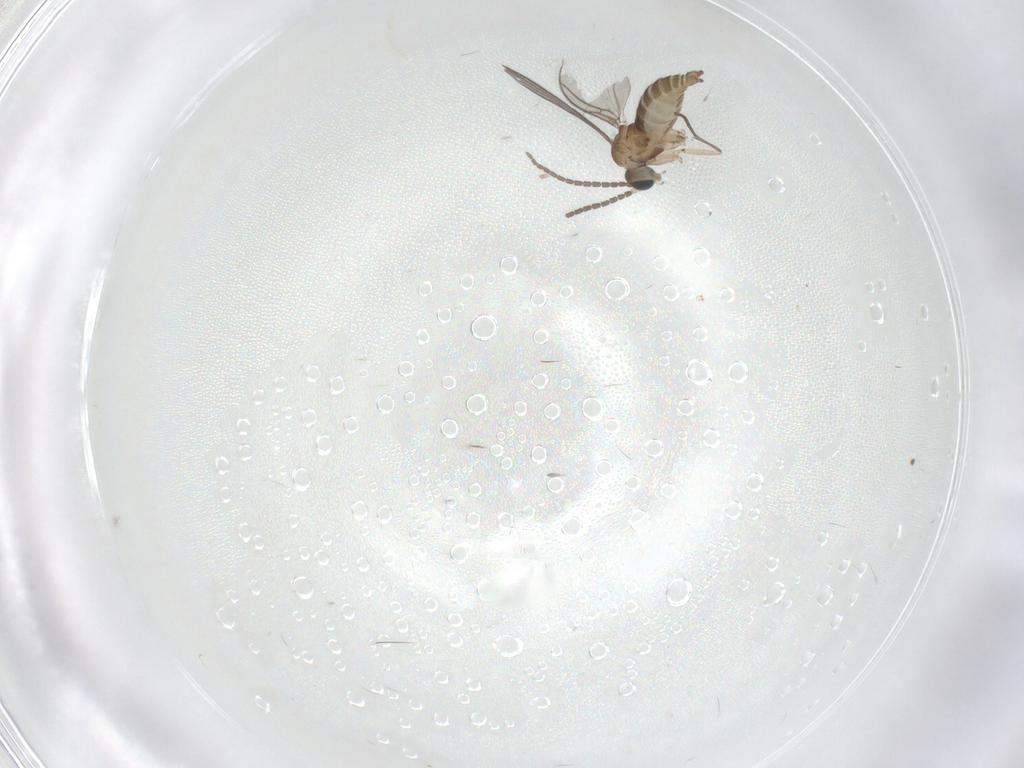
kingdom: Animalia
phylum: Arthropoda
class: Insecta
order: Diptera
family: Sciaridae
